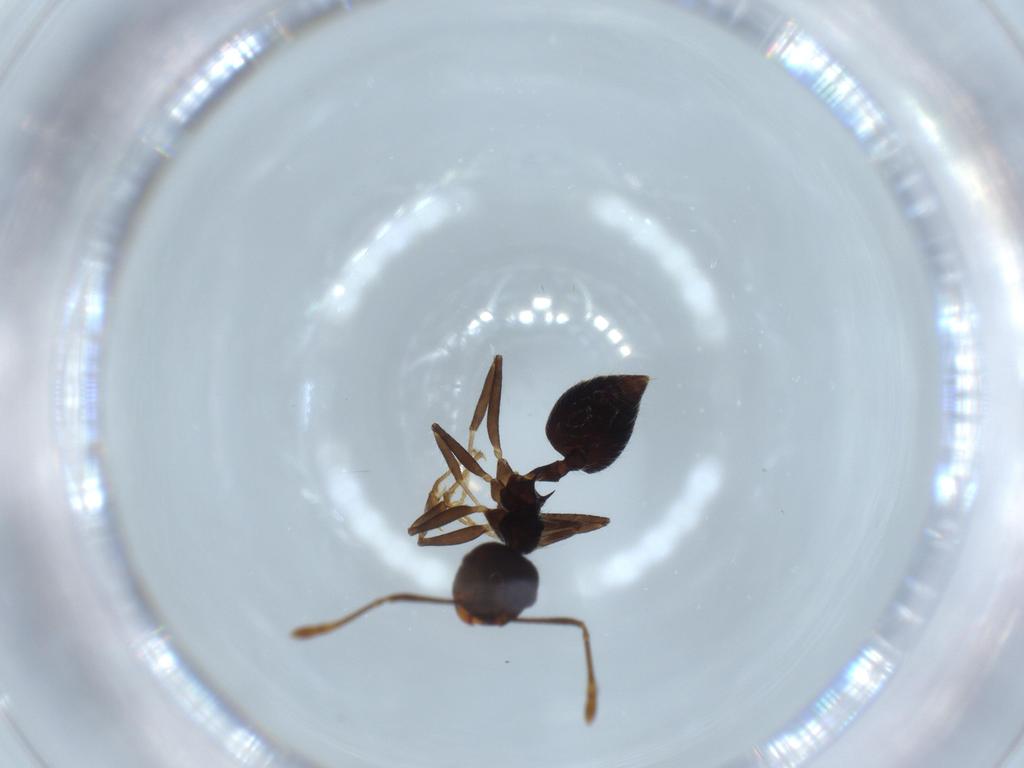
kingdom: Animalia
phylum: Arthropoda
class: Insecta
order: Hymenoptera
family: Formicidae
